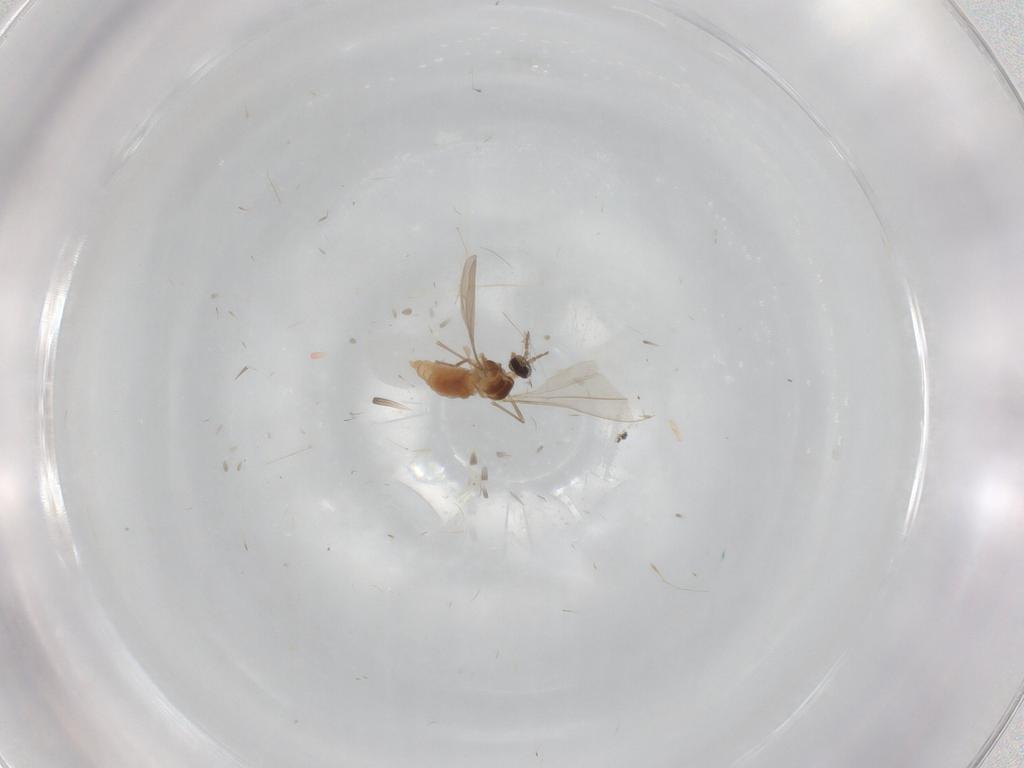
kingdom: Animalia
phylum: Arthropoda
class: Insecta
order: Diptera
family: Cecidomyiidae
